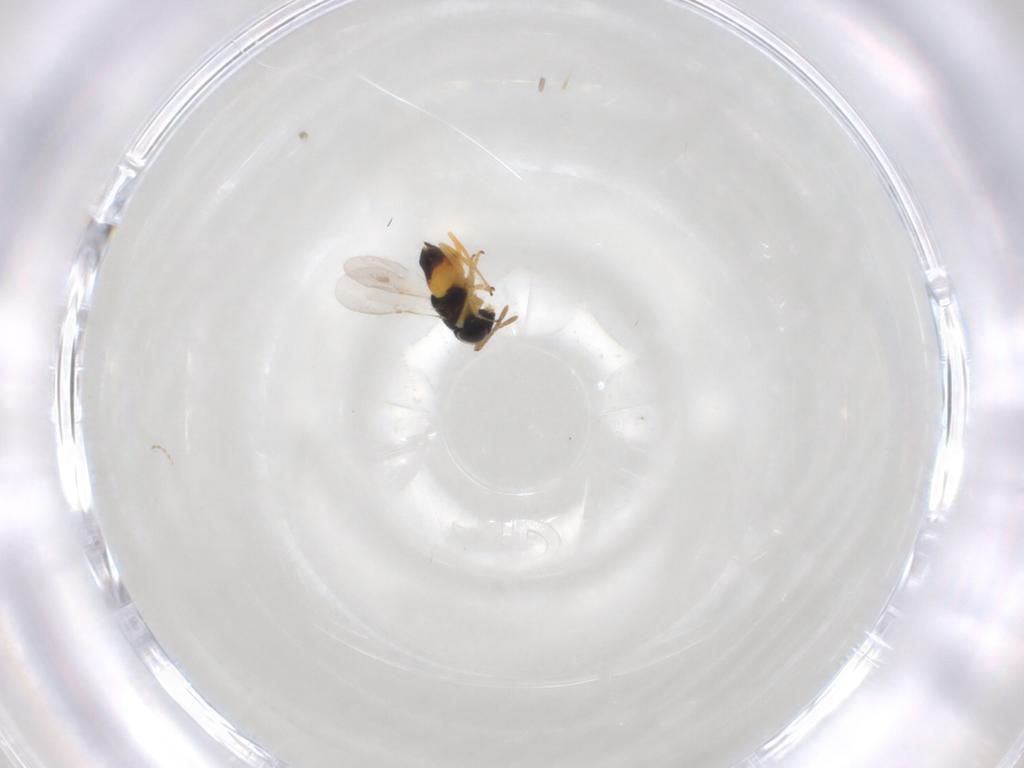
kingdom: Animalia
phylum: Arthropoda
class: Insecta
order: Hymenoptera
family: Encyrtidae
